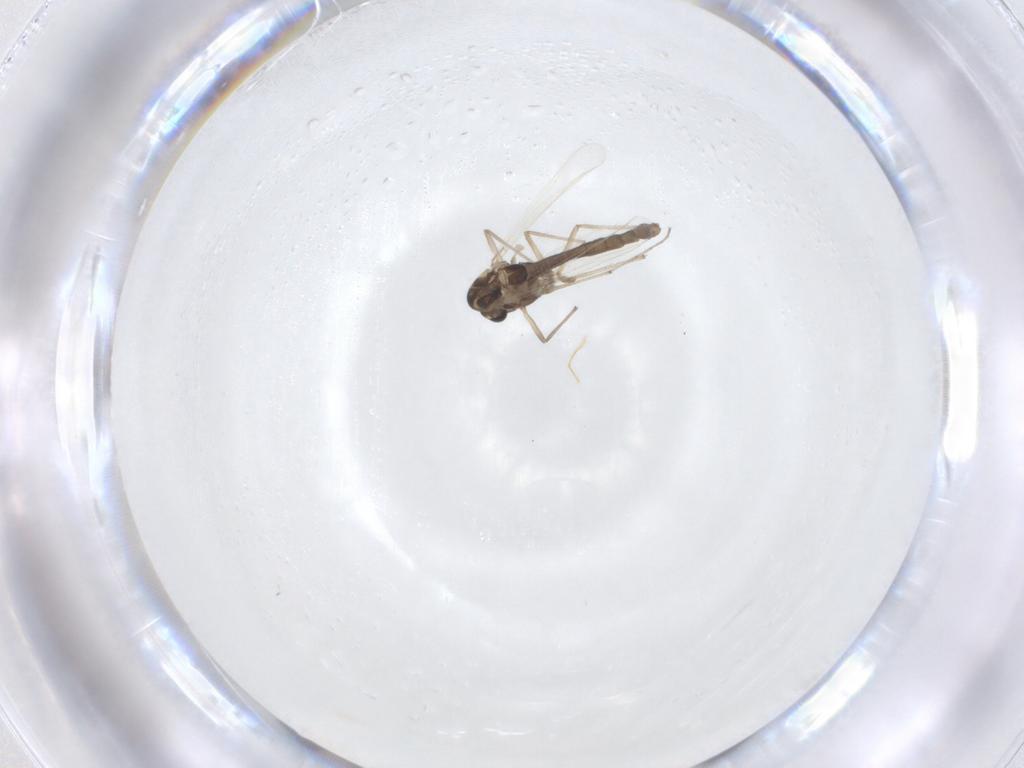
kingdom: Animalia
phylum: Arthropoda
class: Insecta
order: Diptera
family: Chironomidae
